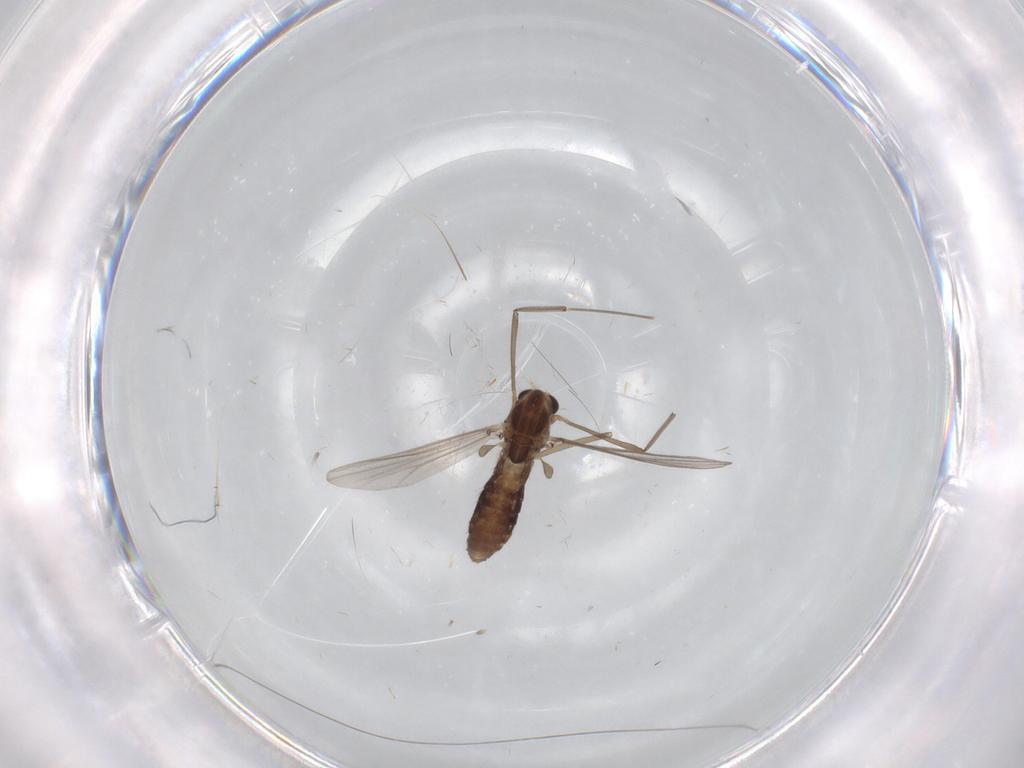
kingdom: Animalia
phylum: Arthropoda
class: Insecta
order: Diptera
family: Chironomidae
